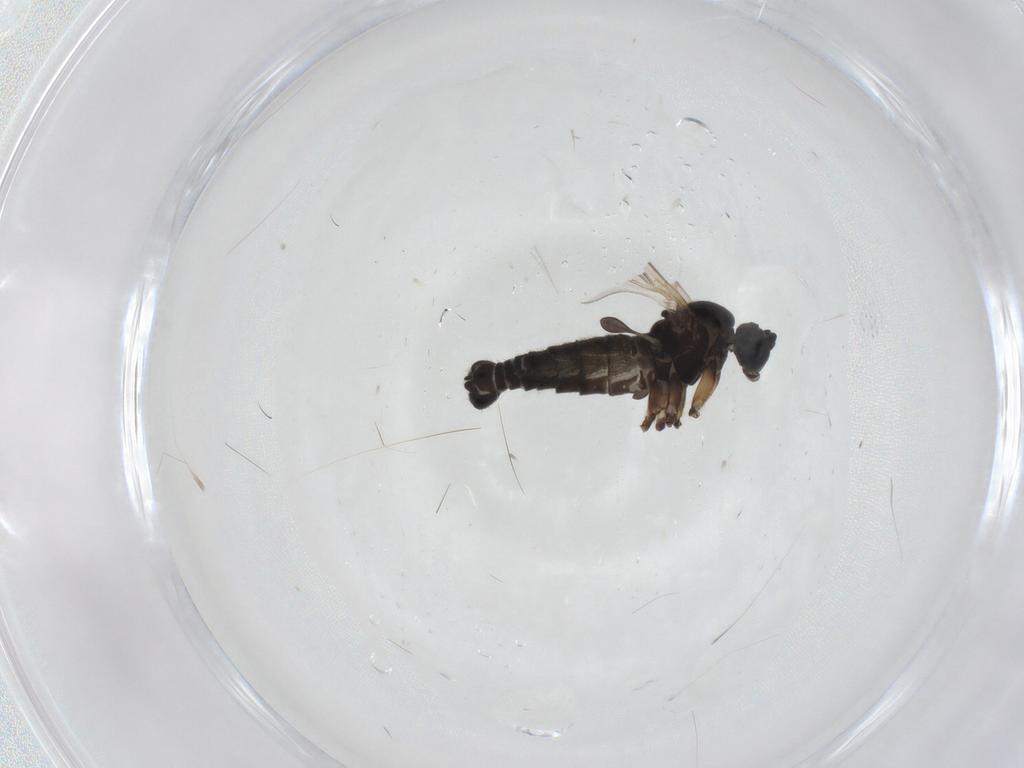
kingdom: Animalia
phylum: Arthropoda
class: Insecta
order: Diptera
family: Sciaridae
